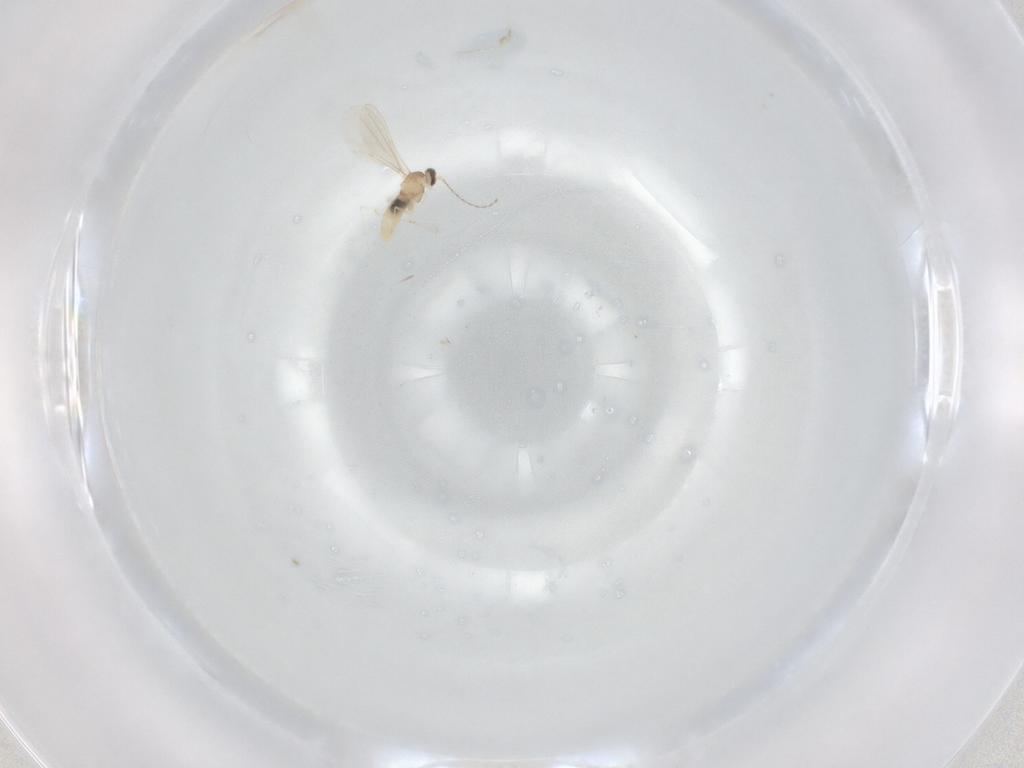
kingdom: Animalia
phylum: Arthropoda
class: Insecta
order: Diptera
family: Cecidomyiidae
